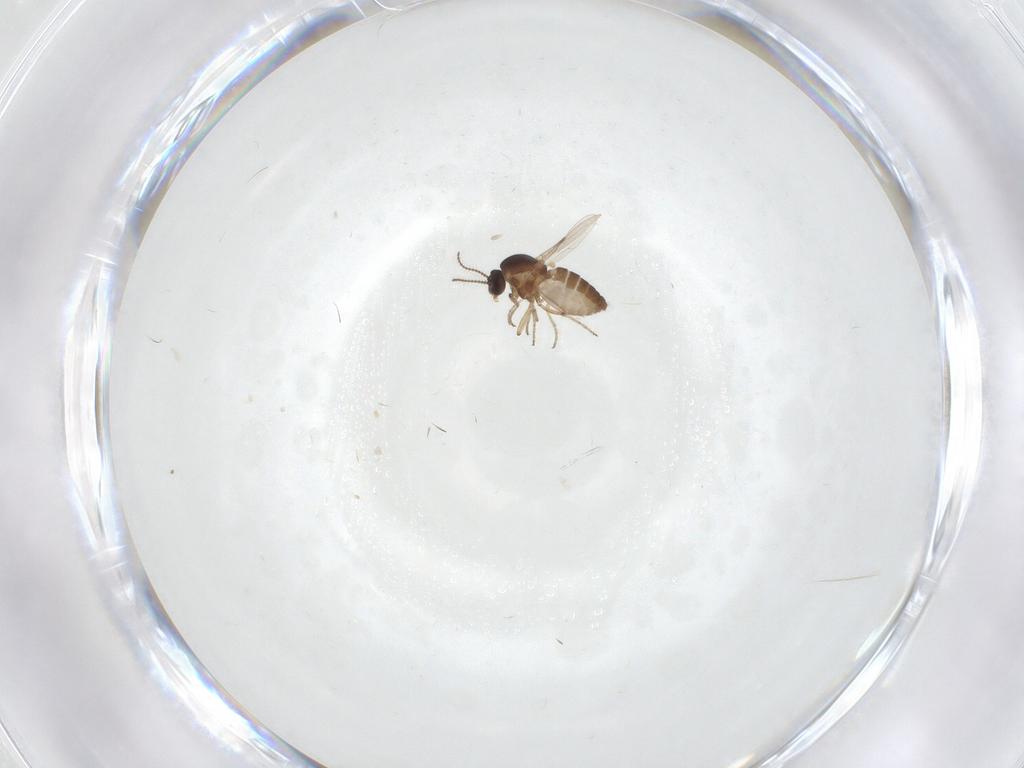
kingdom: Animalia
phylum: Arthropoda
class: Insecta
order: Diptera
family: Ceratopogonidae
